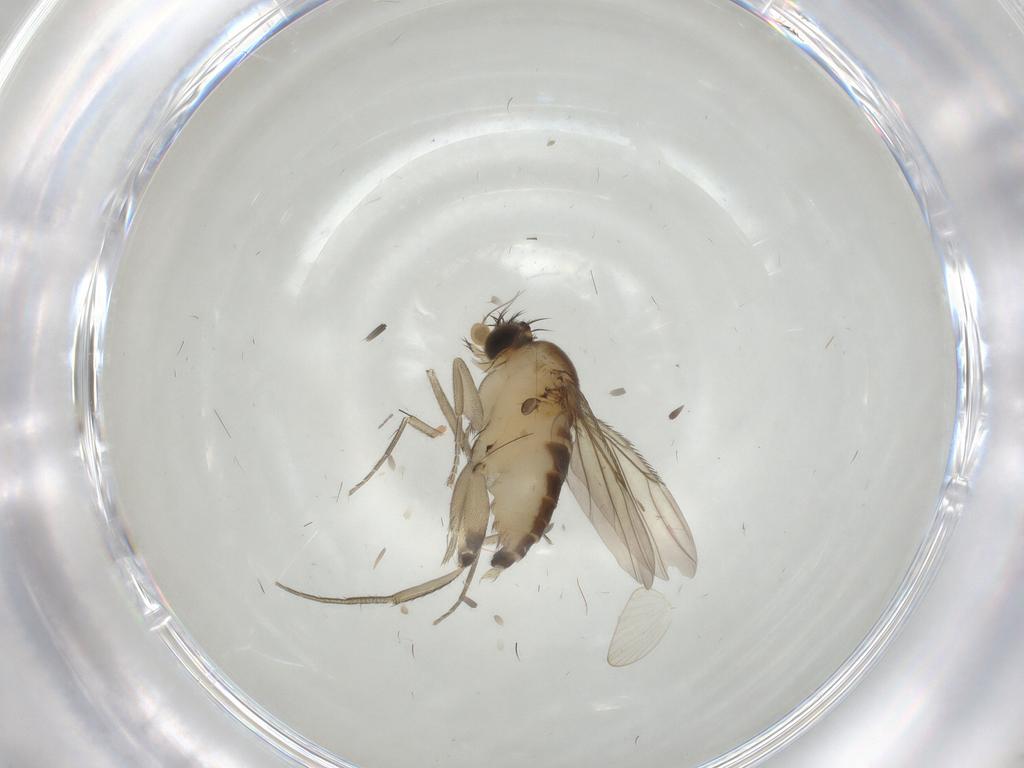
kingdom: Animalia
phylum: Arthropoda
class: Insecta
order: Diptera
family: Phoridae
